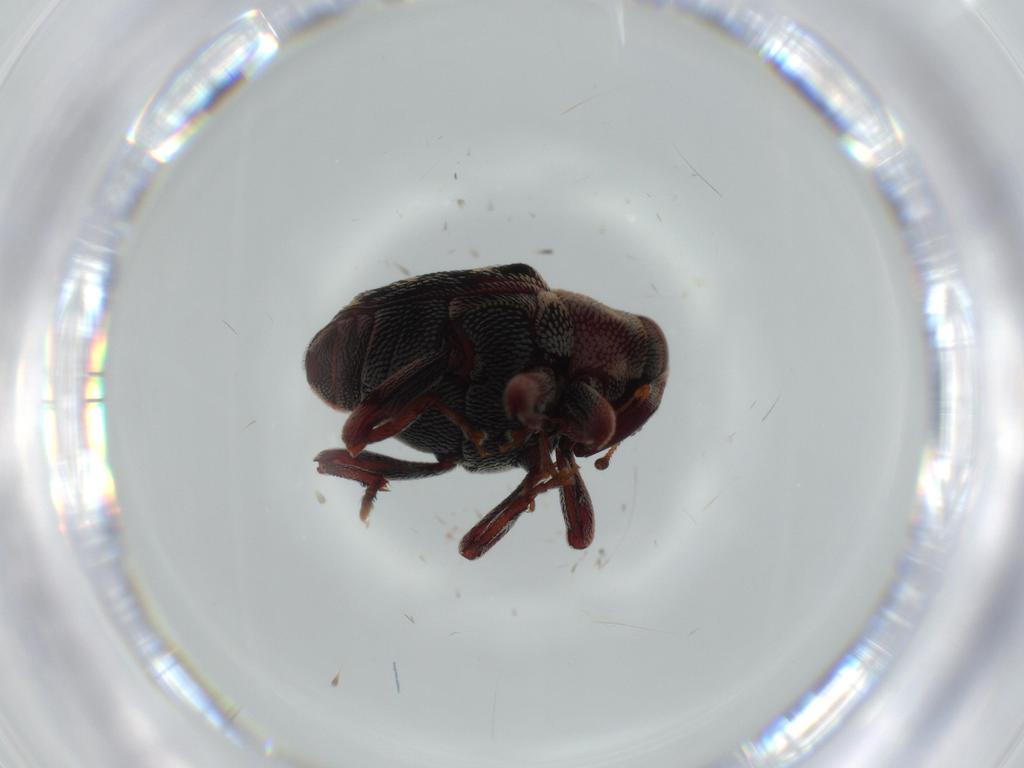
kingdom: Animalia
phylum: Arthropoda
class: Insecta
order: Coleoptera
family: Curculionidae
